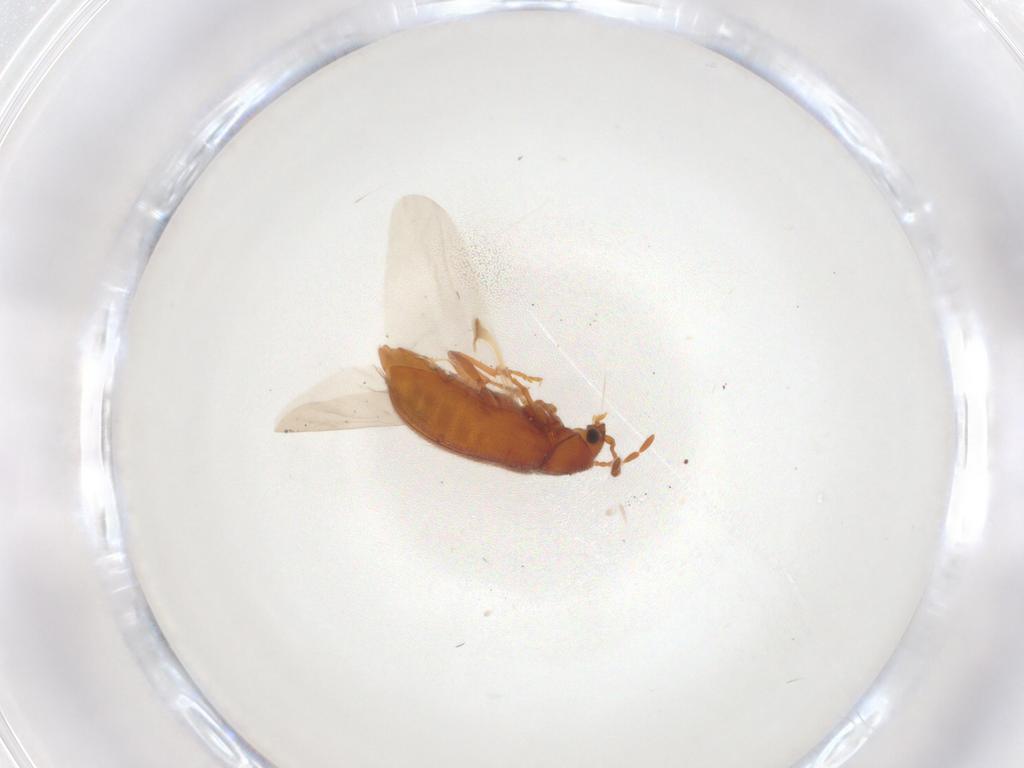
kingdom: Animalia
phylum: Arthropoda
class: Insecta
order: Coleoptera
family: Ptinidae
